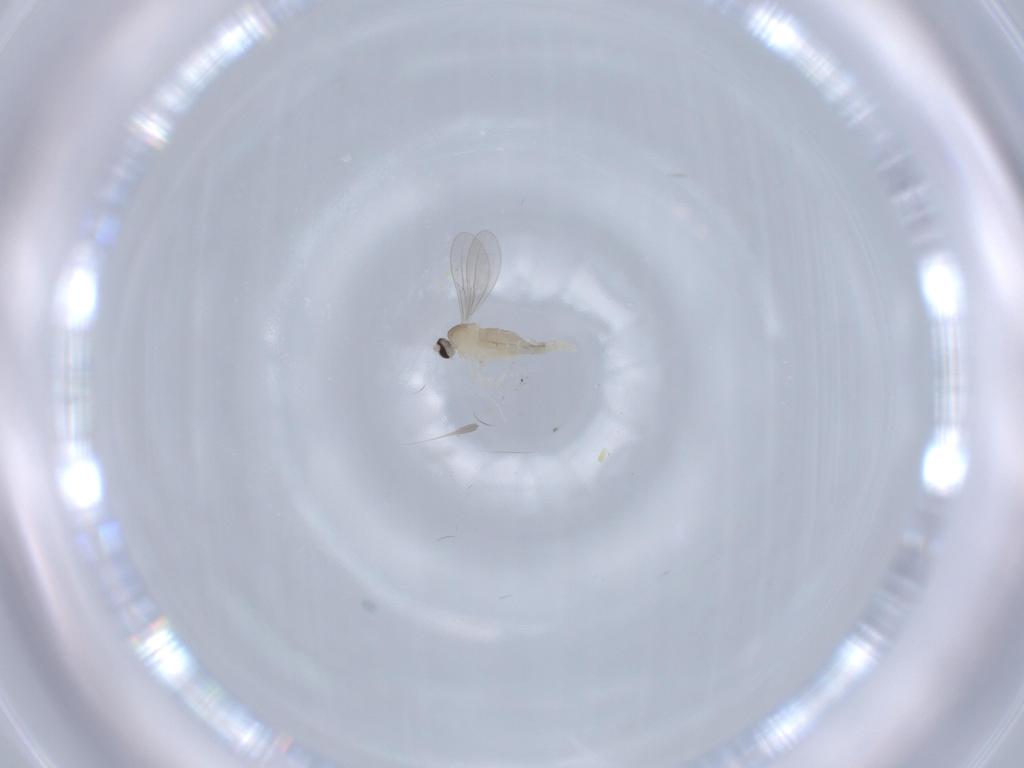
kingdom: Animalia
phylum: Arthropoda
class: Insecta
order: Diptera
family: Cecidomyiidae
